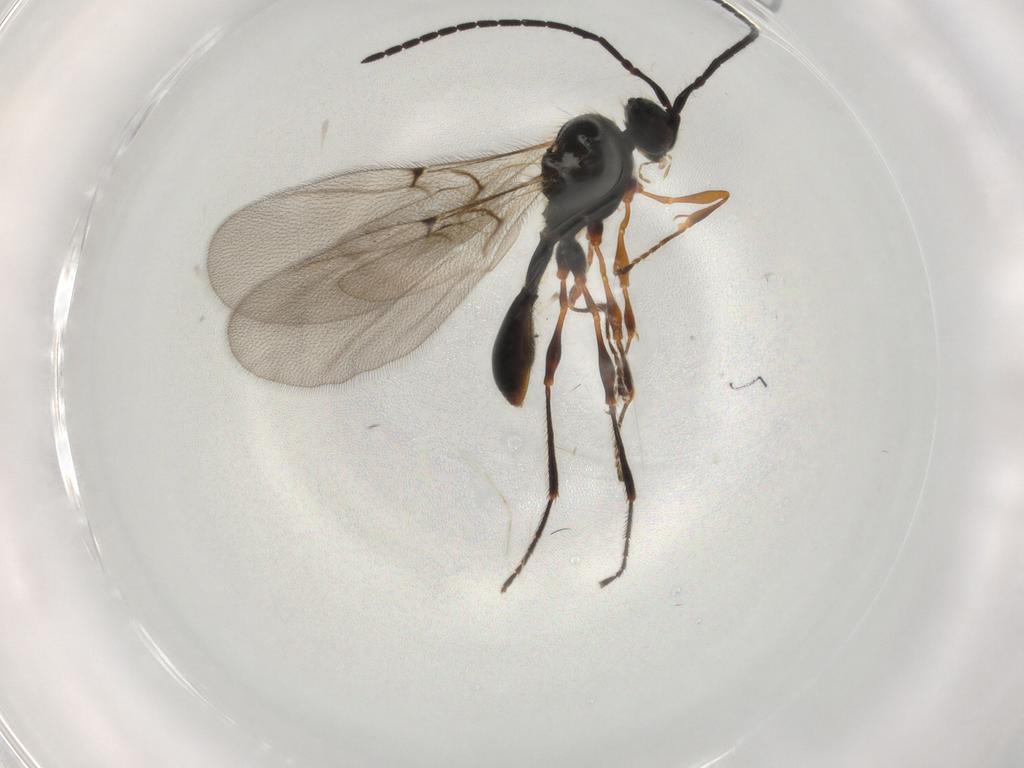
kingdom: Animalia
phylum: Arthropoda
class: Insecta
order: Hymenoptera
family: Diapriidae
